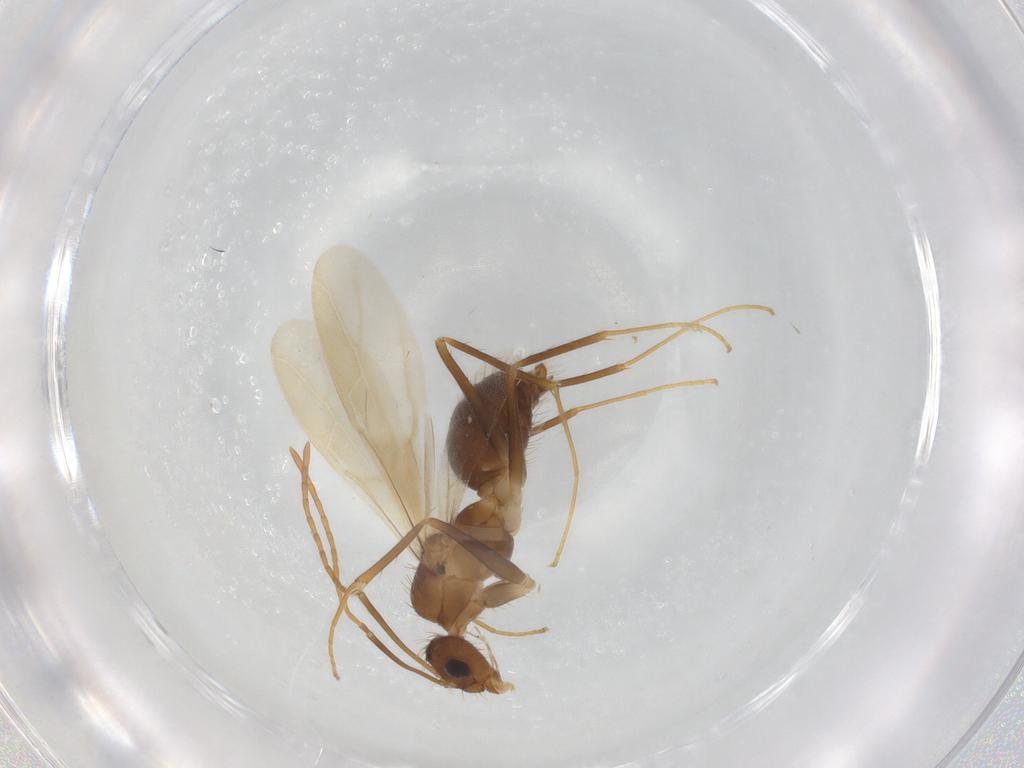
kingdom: Animalia
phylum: Arthropoda
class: Insecta
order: Hymenoptera
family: Formicidae
